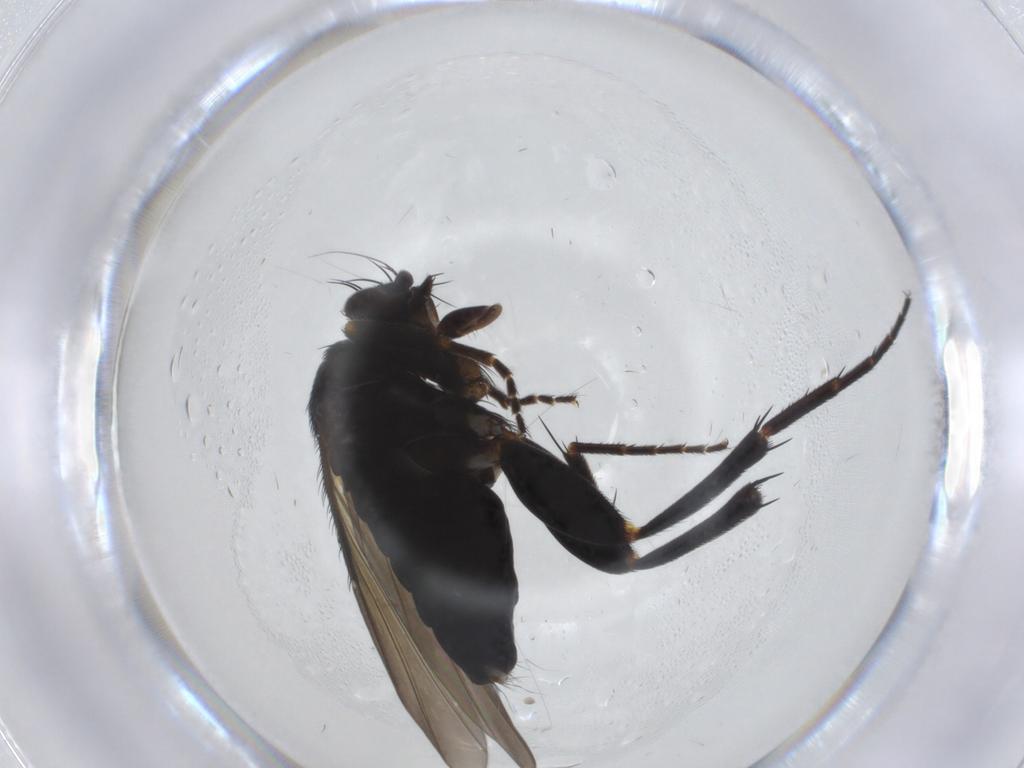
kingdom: Animalia
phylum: Arthropoda
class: Insecta
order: Diptera
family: Phoridae
